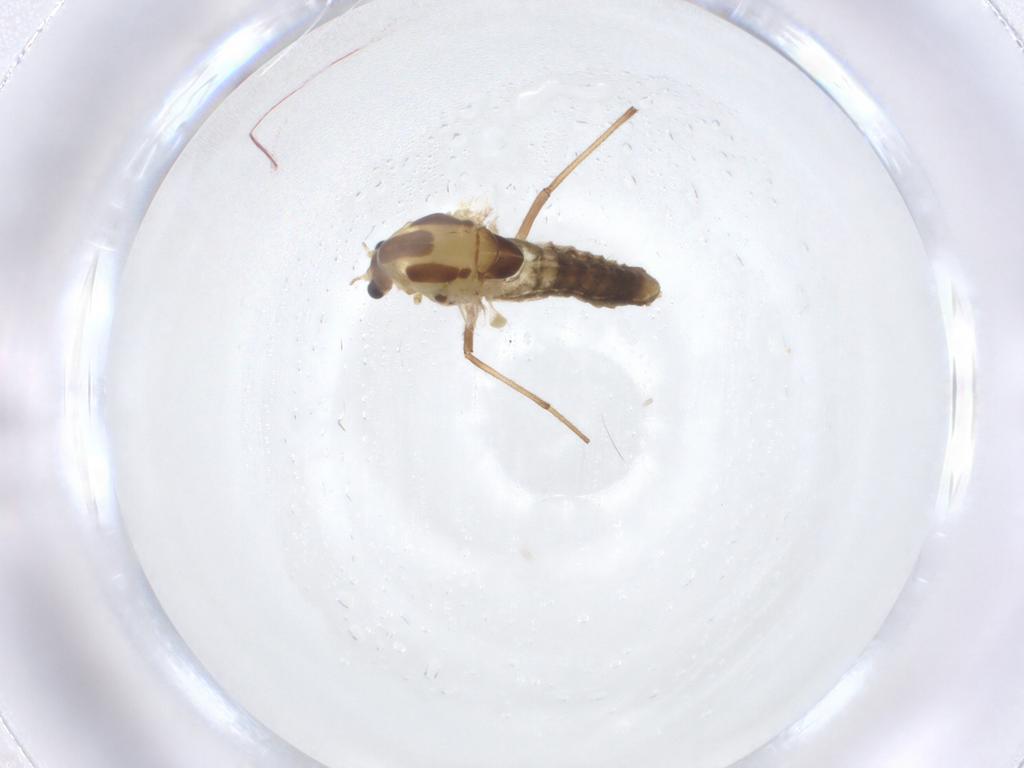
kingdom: Animalia
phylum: Arthropoda
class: Insecta
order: Diptera
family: Chironomidae
